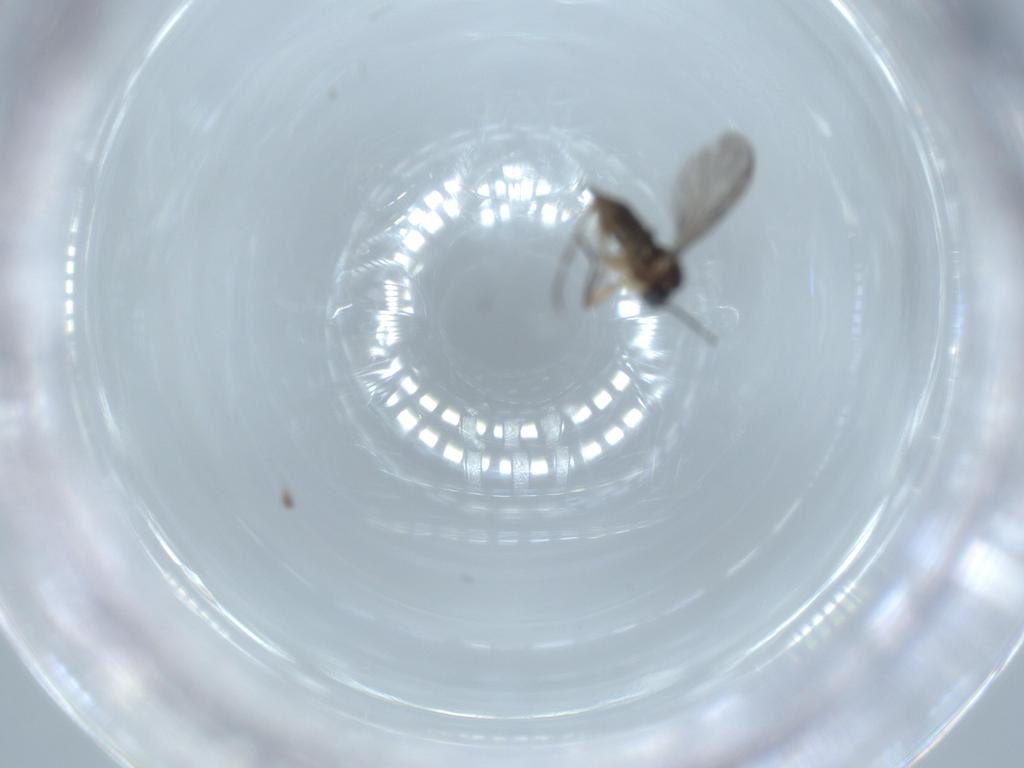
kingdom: Animalia
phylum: Arthropoda
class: Insecta
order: Diptera
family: Sciaridae
